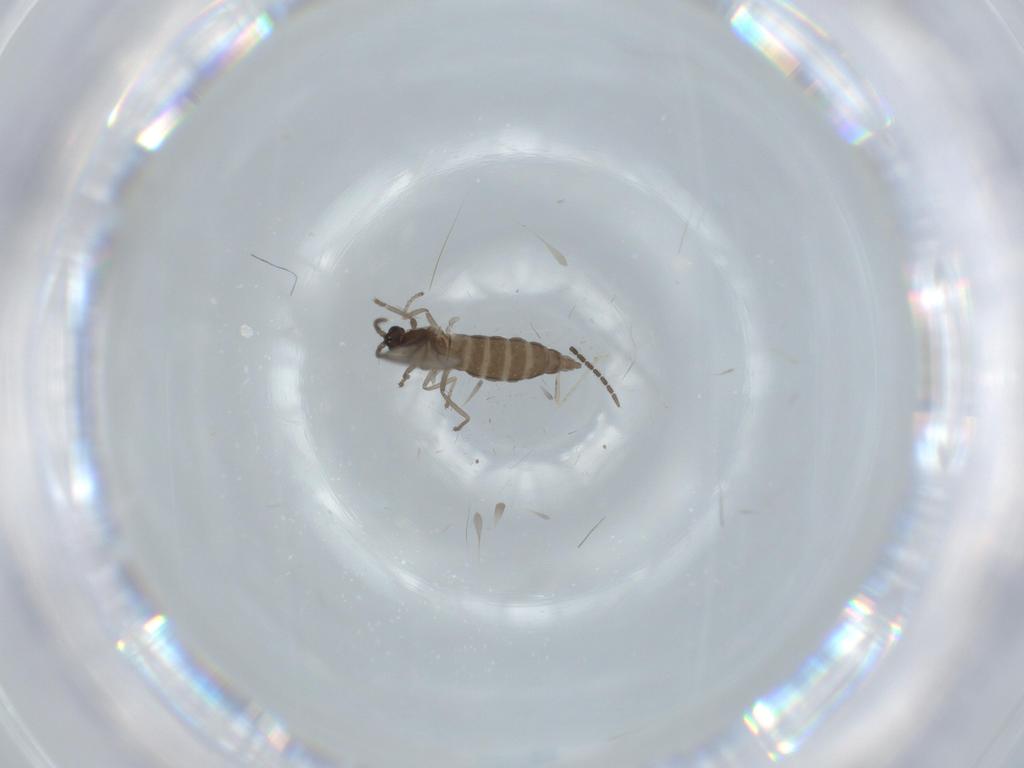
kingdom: Animalia
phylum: Arthropoda
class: Insecta
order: Diptera
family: Cecidomyiidae
